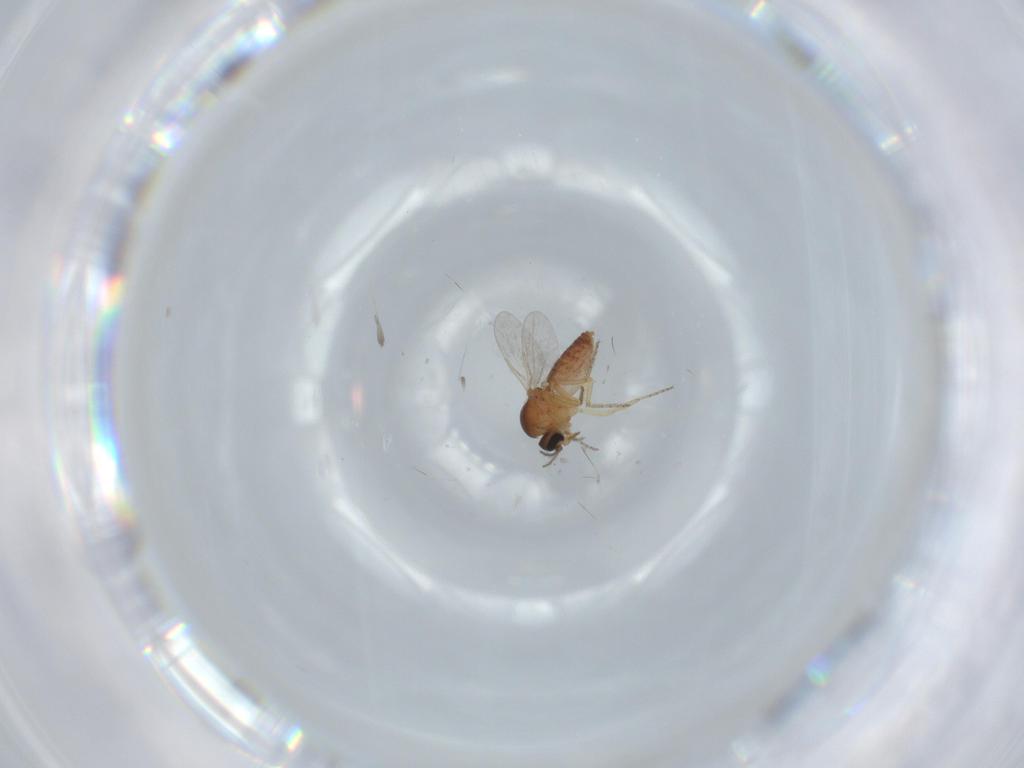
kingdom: Animalia
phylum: Arthropoda
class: Insecta
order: Diptera
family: Ceratopogonidae
